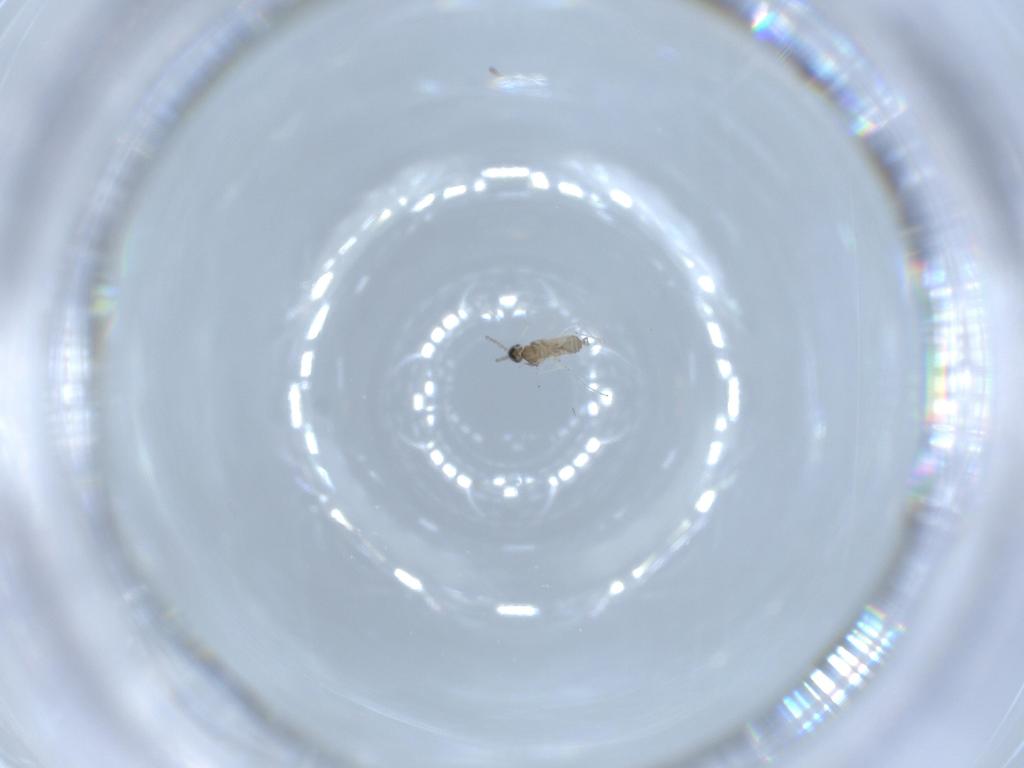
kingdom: Animalia
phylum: Arthropoda
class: Insecta
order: Diptera
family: Cecidomyiidae
